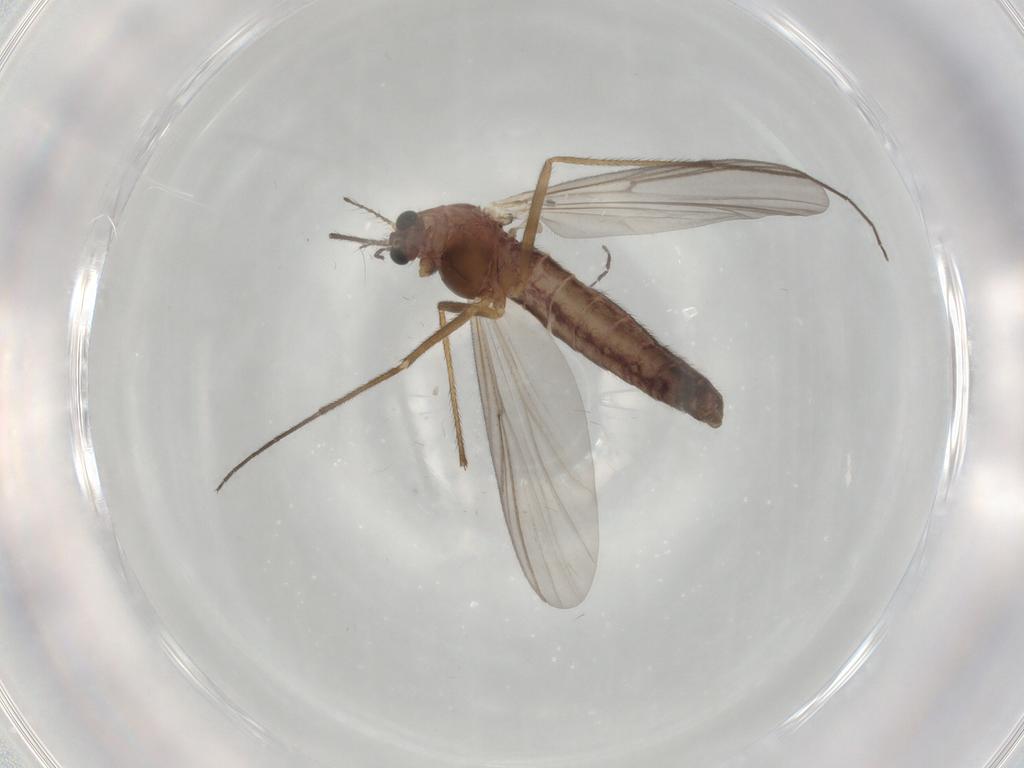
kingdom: Animalia
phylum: Arthropoda
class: Insecta
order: Diptera
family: Chironomidae
